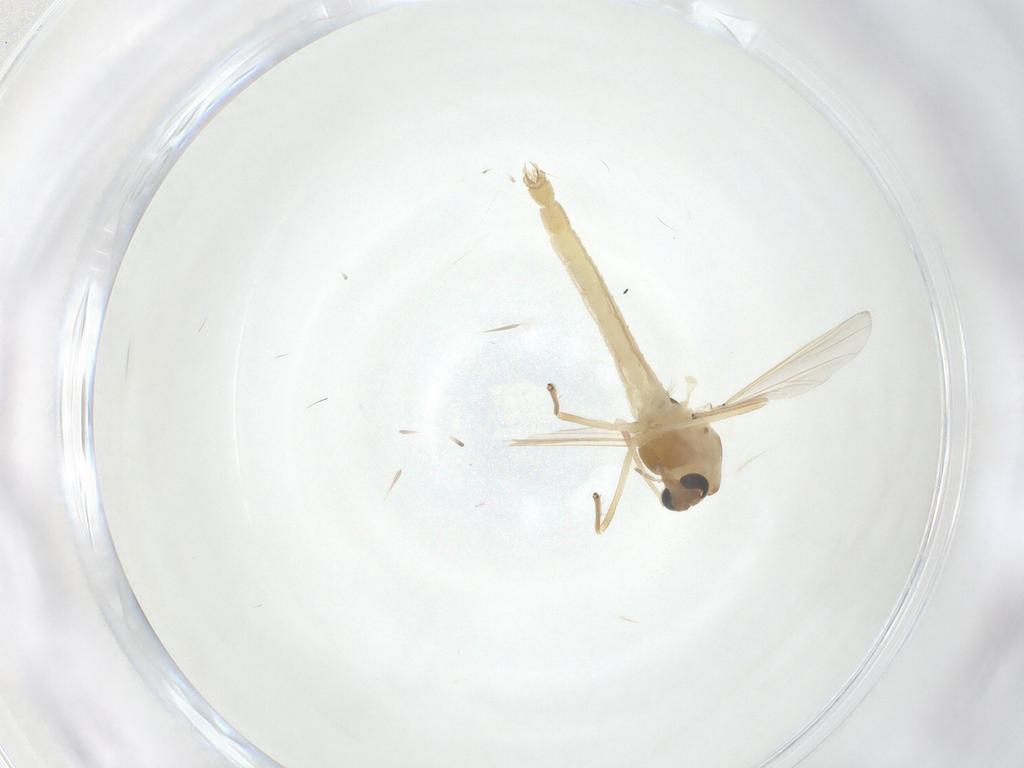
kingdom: Animalia
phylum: Arthropoda
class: Insecta
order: Diptera
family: Chironomidae
